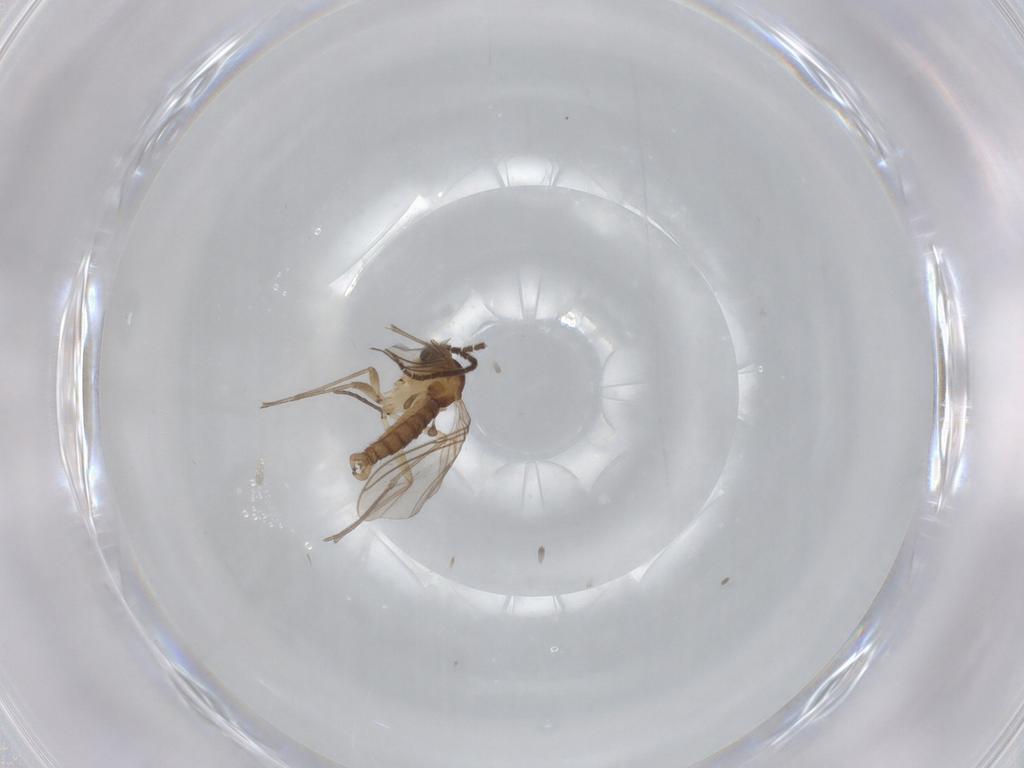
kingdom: Animalia
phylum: Arthropoda
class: Insecta
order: Diptera
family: Sciaridae
